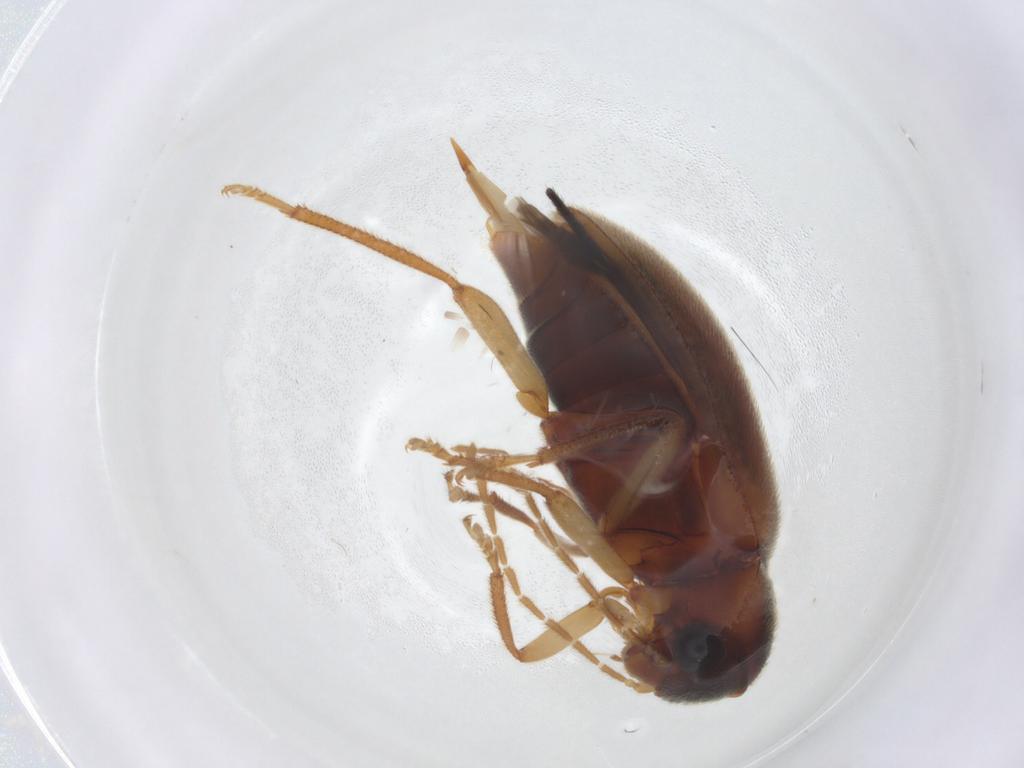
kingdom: Animalia
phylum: Arthropoda
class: Insecta
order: Coleoptera
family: Ptilodactylidae
